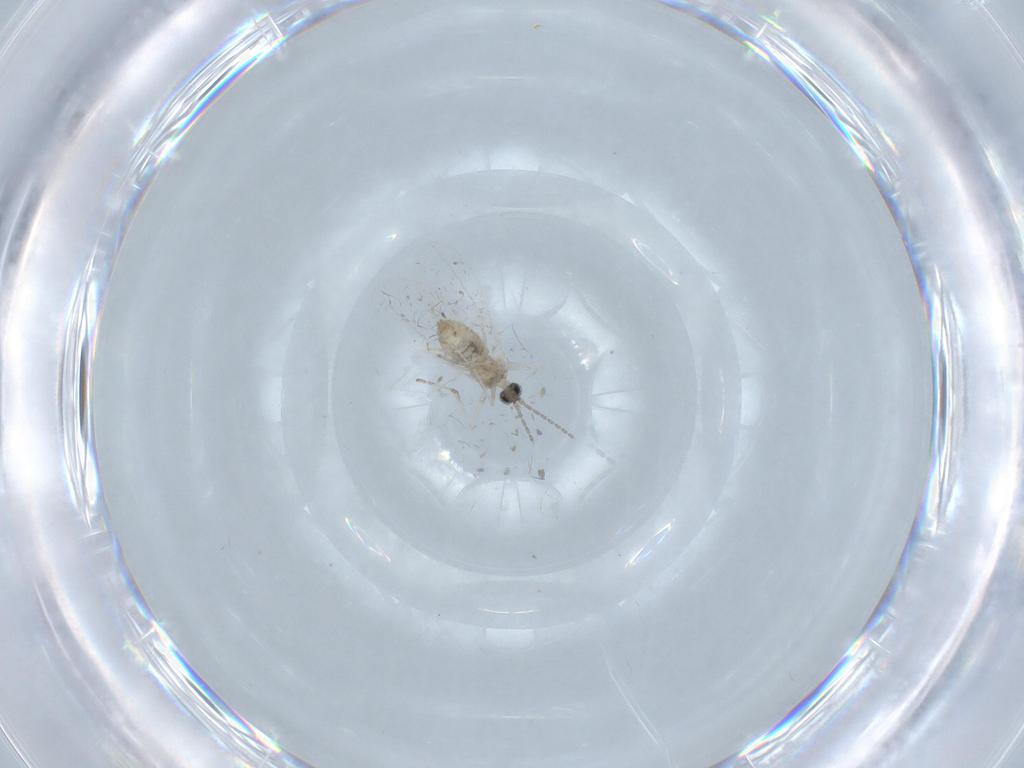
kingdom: Animalia
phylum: Arthropoda
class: Insecta
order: Diptera
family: Cecidomyiidae
